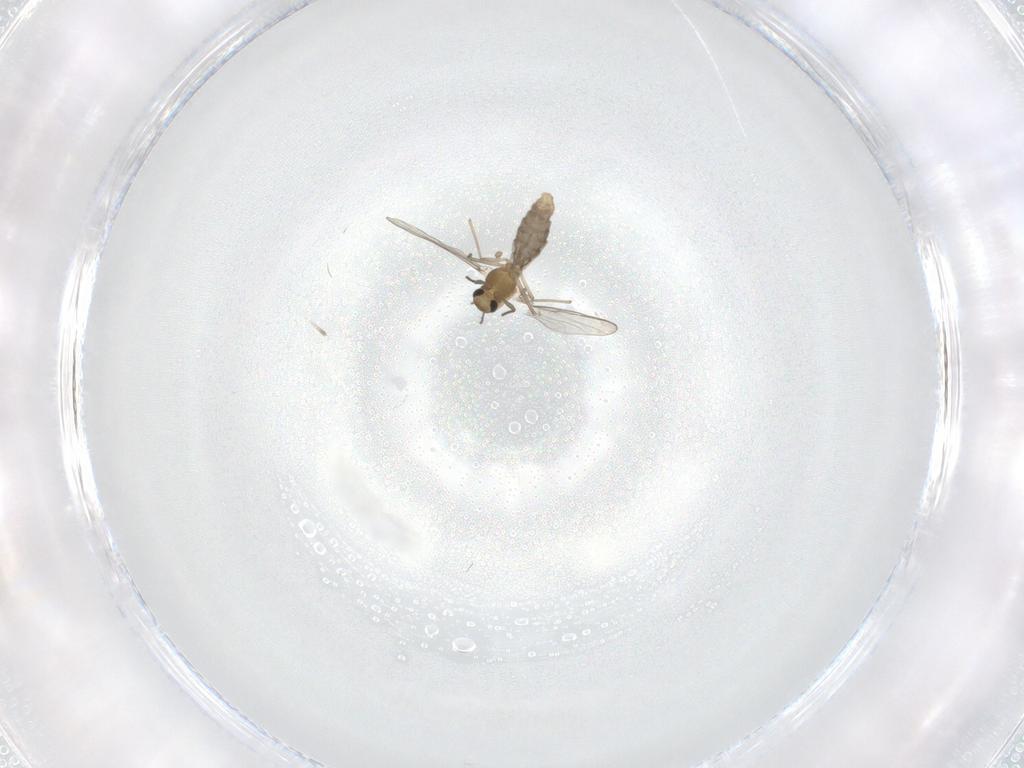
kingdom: Animalia
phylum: Arthropoda
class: Insecta
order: Diptera
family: Chironomidae
